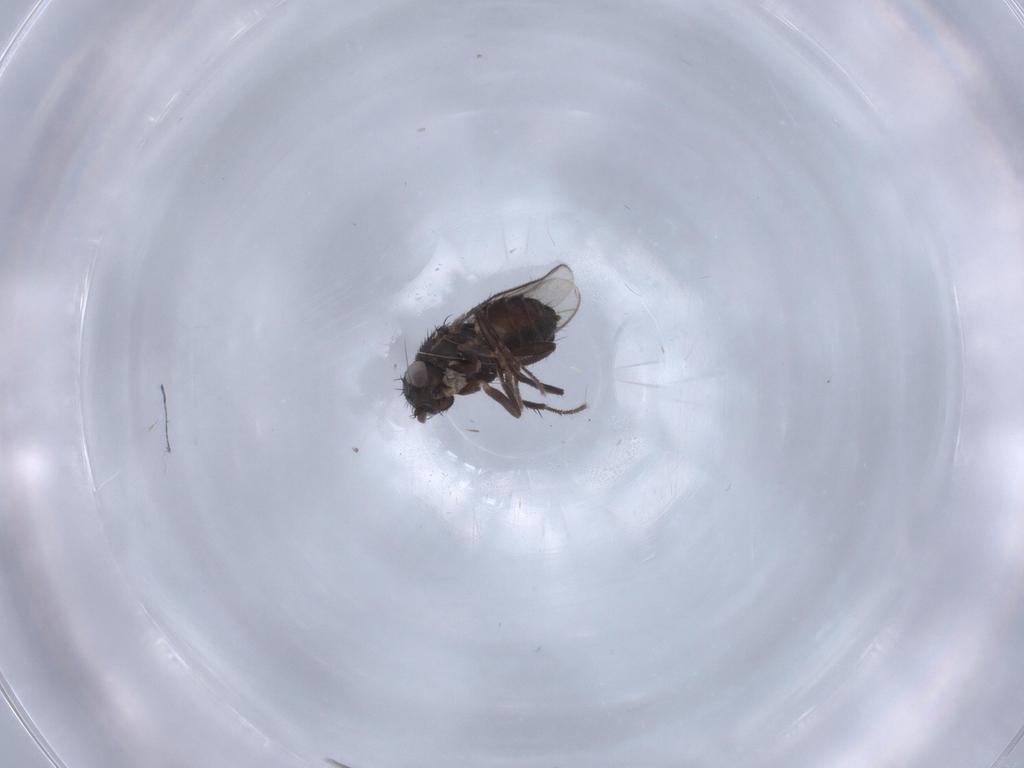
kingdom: Animalia
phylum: Arthropoda
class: Insecta
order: Diptera
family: Sphaeroceridae
